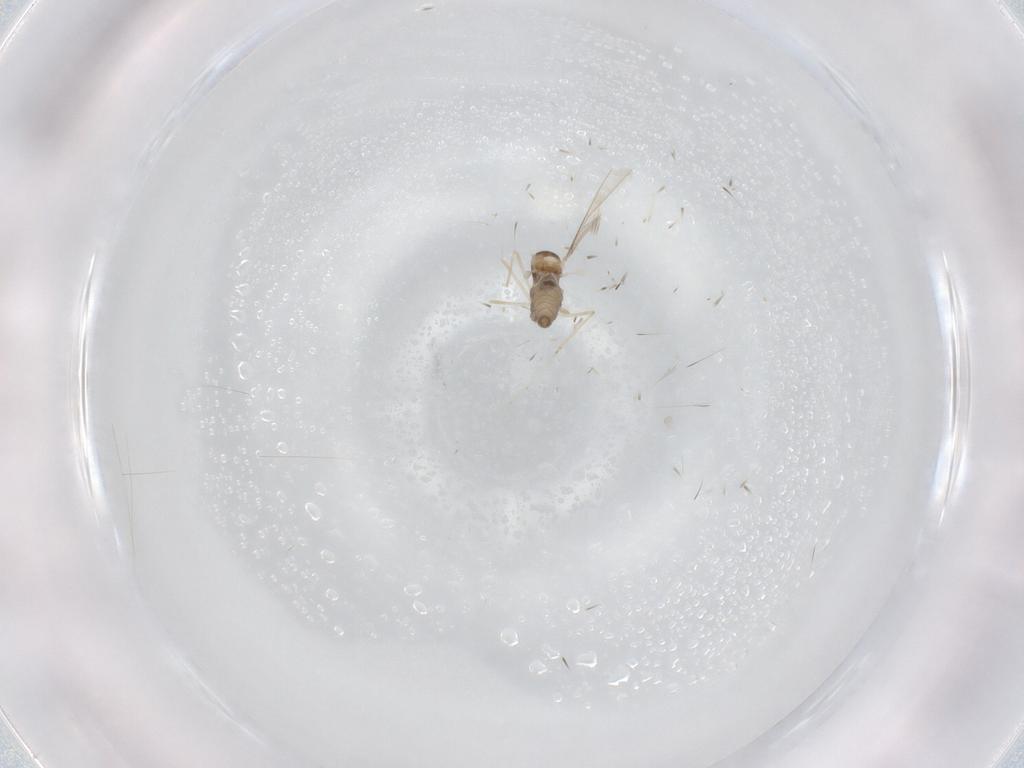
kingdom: Animalia
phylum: Arthropoda
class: Insecta
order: Diptera
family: Cecidomyiidae
